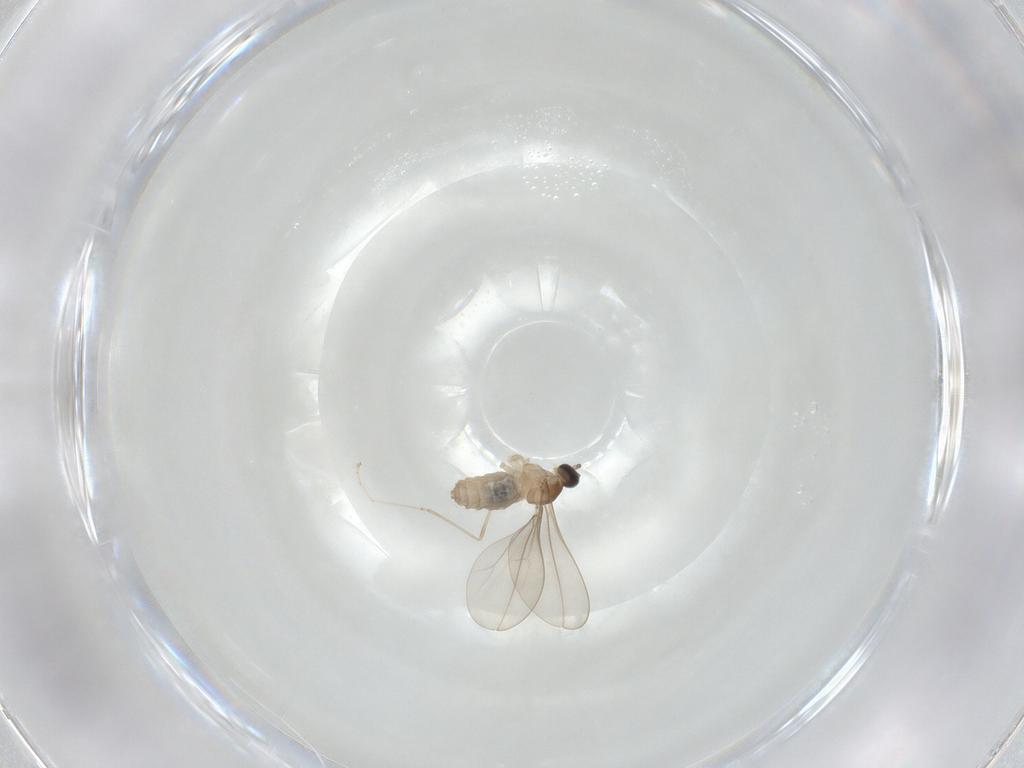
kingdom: Animalia
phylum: Arthropoda
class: Insecta
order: Diptera
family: Cecidomyiidae
